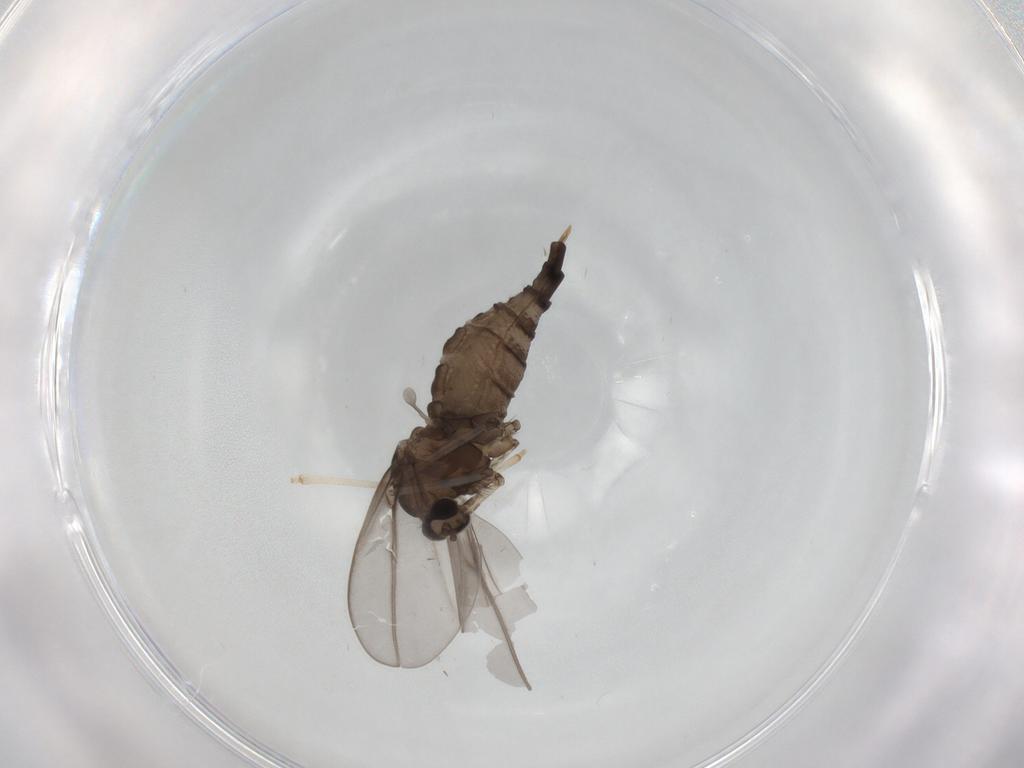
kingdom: Animalia
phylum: Arthropoda
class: Insecta
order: Diptera
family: Cecidomyiidae
